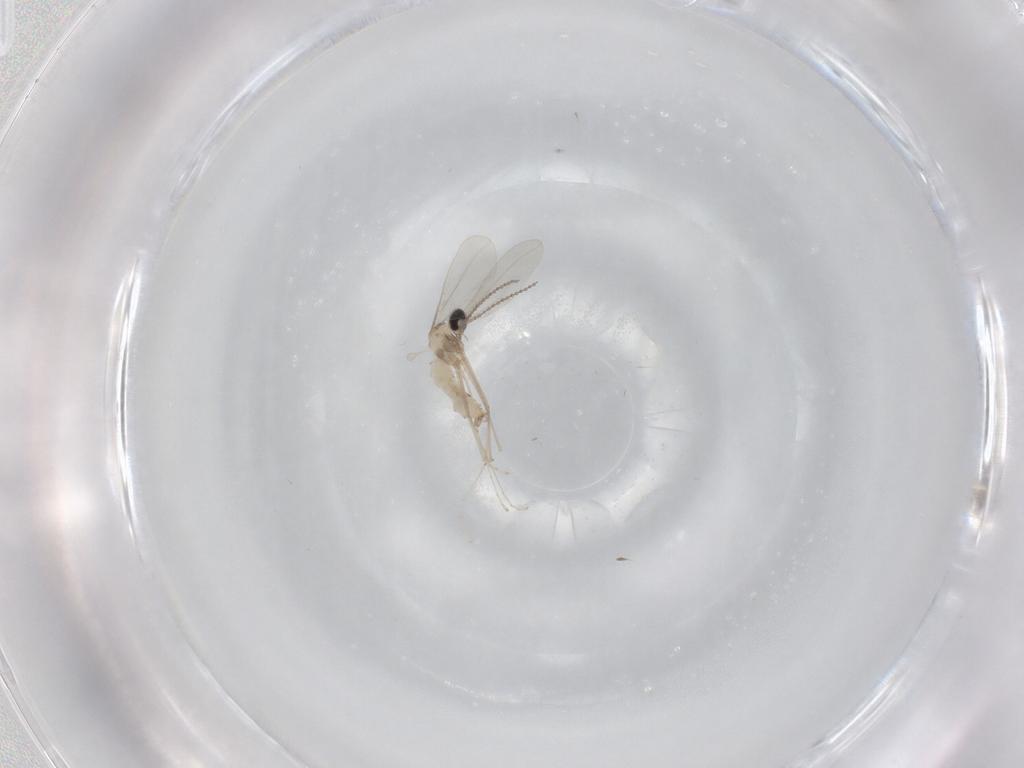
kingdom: Animalia
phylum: Arthropoda
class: Insecta
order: Diptera
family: Cecidomyiidae
